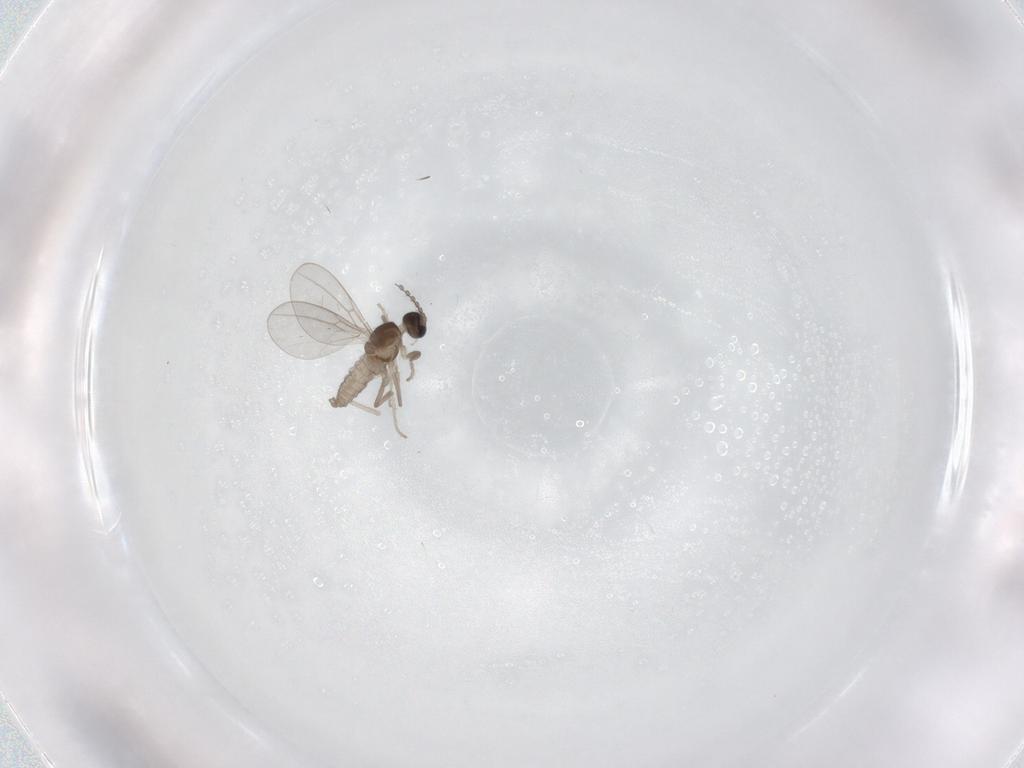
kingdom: Animalia
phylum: Arthropoda
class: Insecta
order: Diptera
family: Cecidomyiidae
